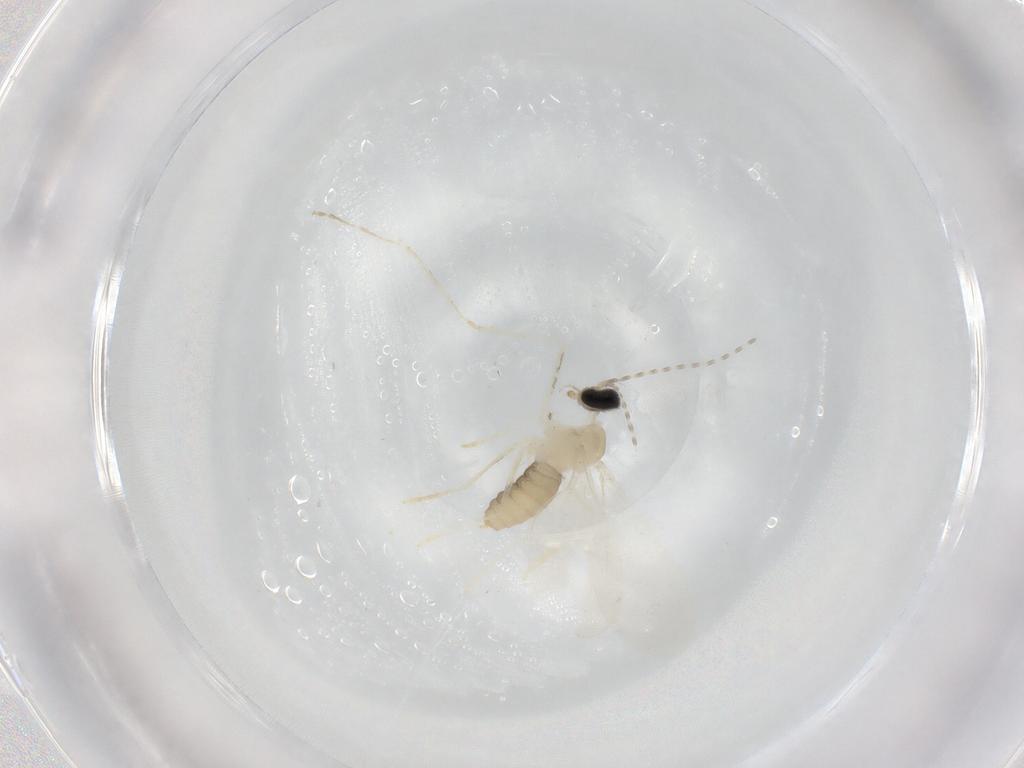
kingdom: Animalia
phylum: Arthropoda
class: Insecta
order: Diptera
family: Cecidomyiidae
